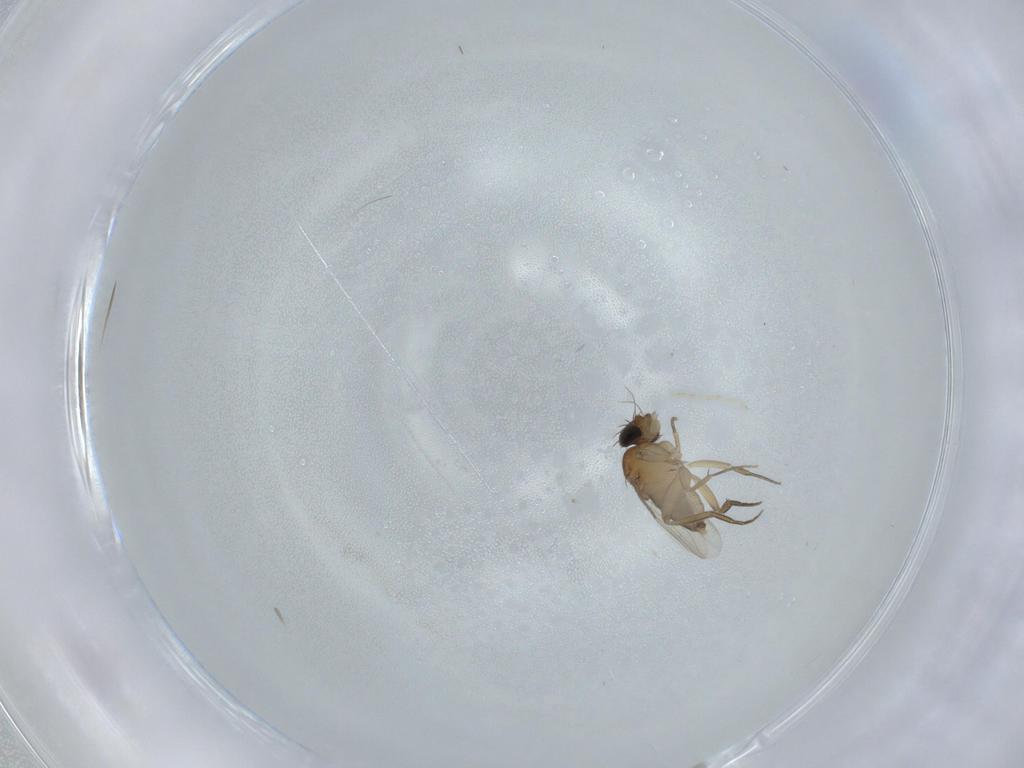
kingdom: Animalia
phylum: Arthropoda
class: Insecta
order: Diptera
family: Phoridae
